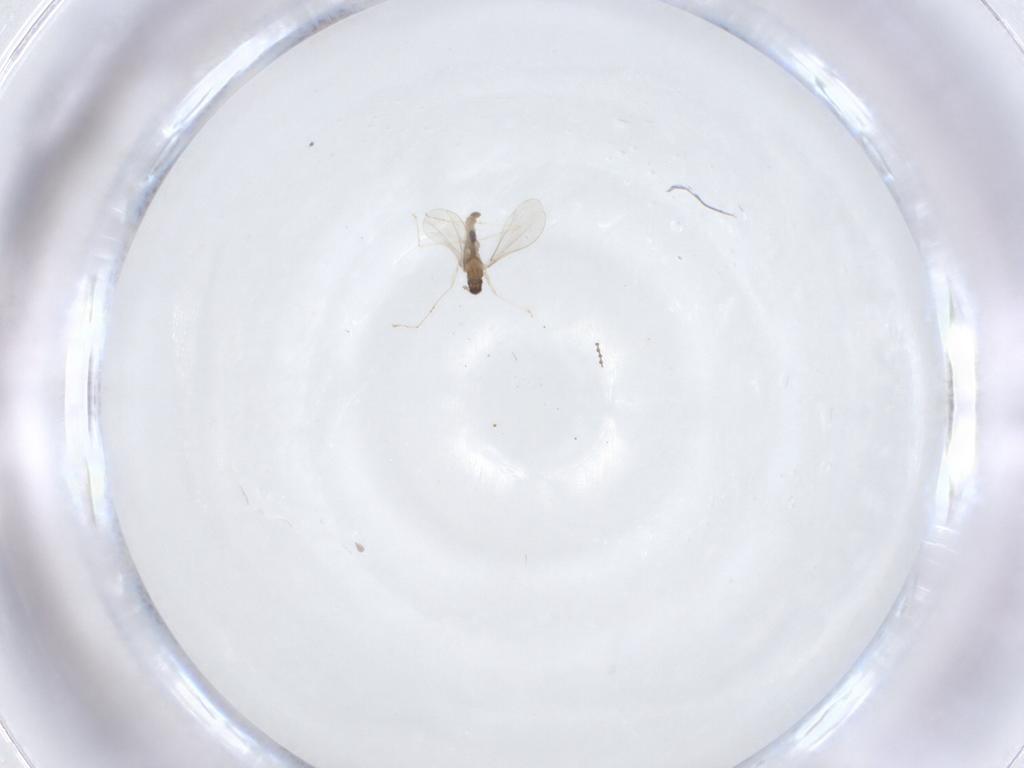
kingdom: Animalia
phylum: Arthropoda
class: Insecta
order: Diptera
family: Cecidomyiidae
